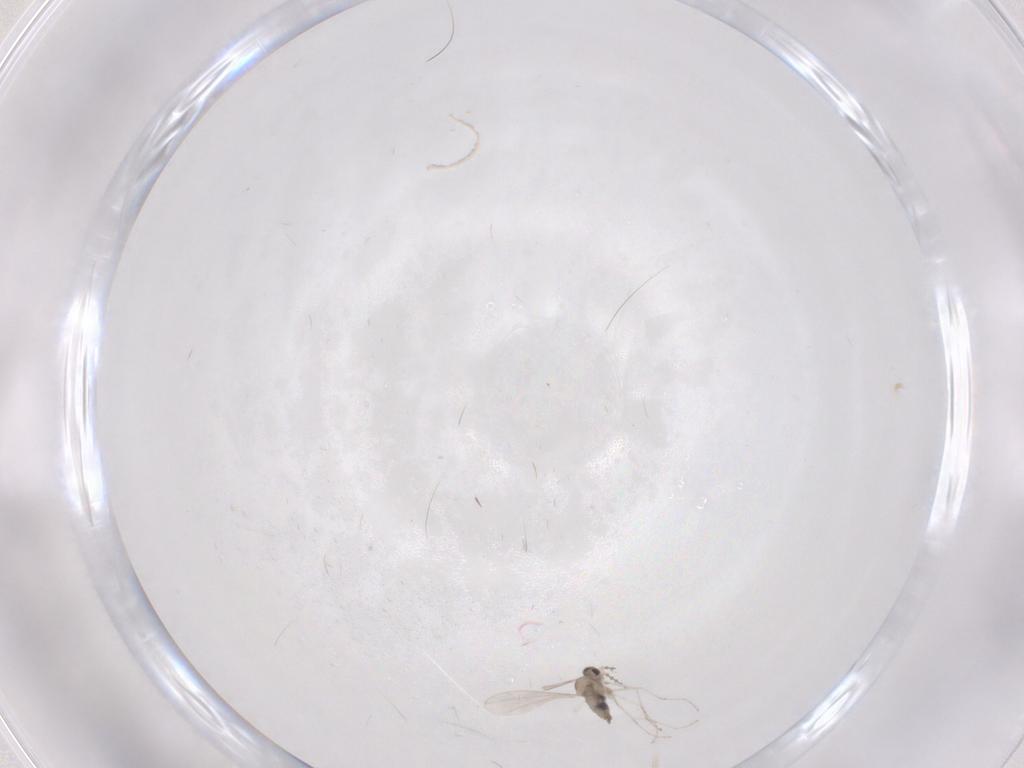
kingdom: Animalia
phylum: Arthropoda
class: Insecta
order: Diptera
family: Cecidomyiidae
